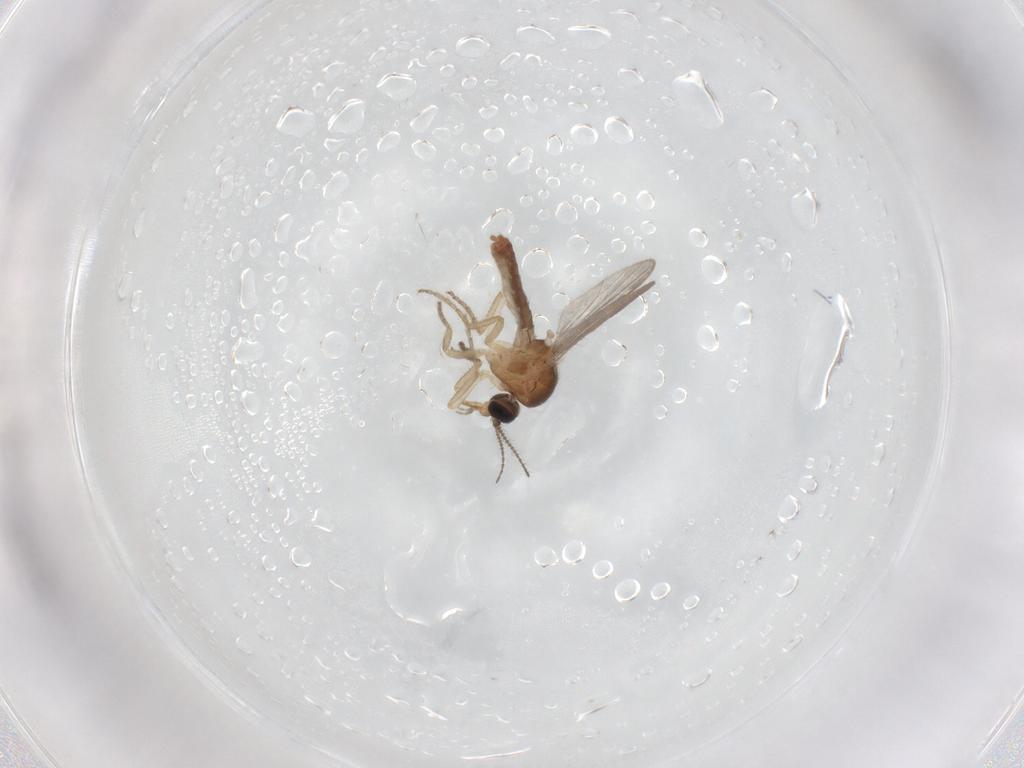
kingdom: Animalia
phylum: Arthropoda
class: Insecta
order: Diptera
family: Ceratopogonidae
